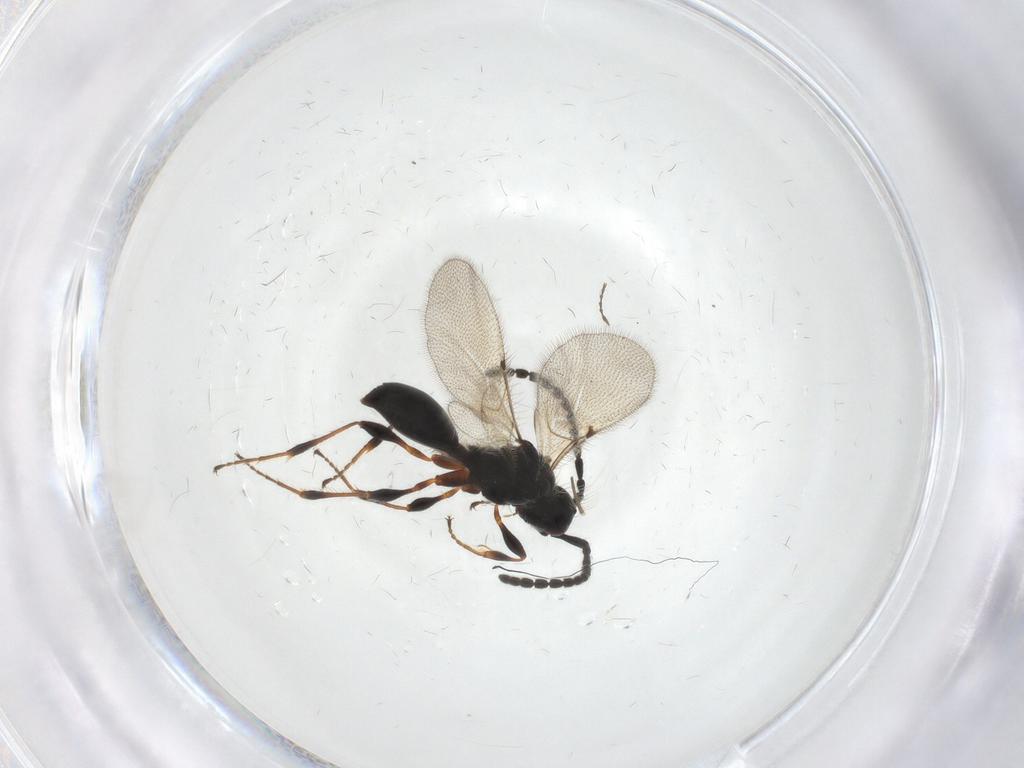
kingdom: Animalia
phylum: Arthropoda
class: Insecta
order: Hymenoptera
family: Diapriidae
